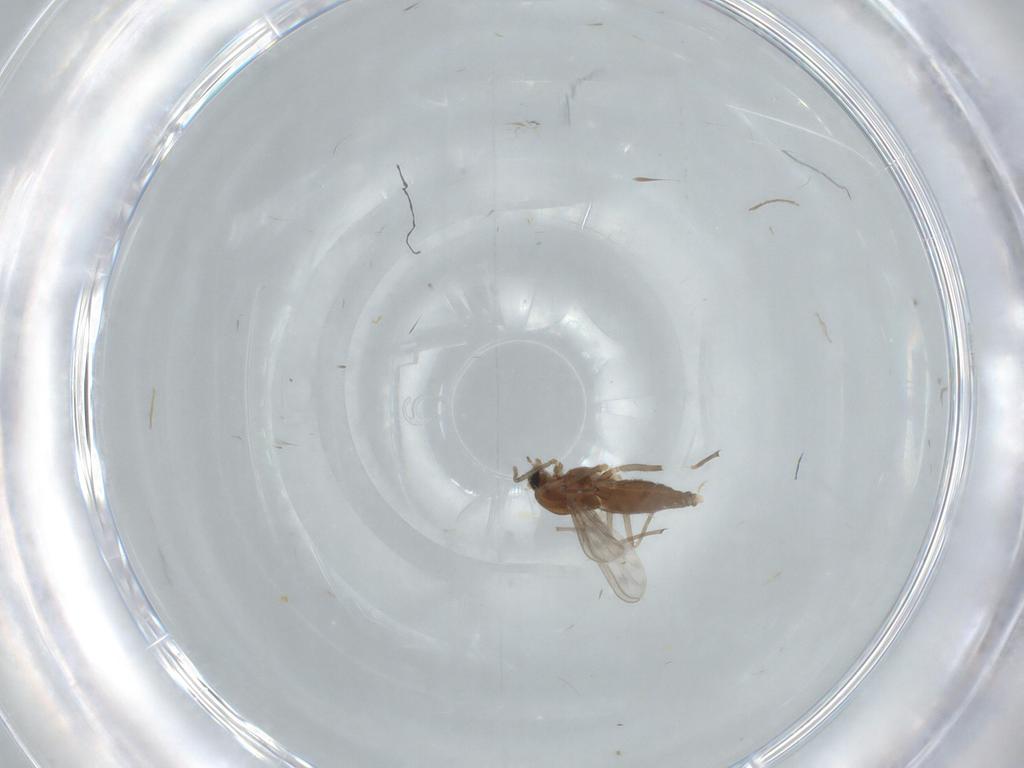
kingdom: Animalia
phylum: Arthropoda
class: Insecta
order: Diptera
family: Chironomidae
